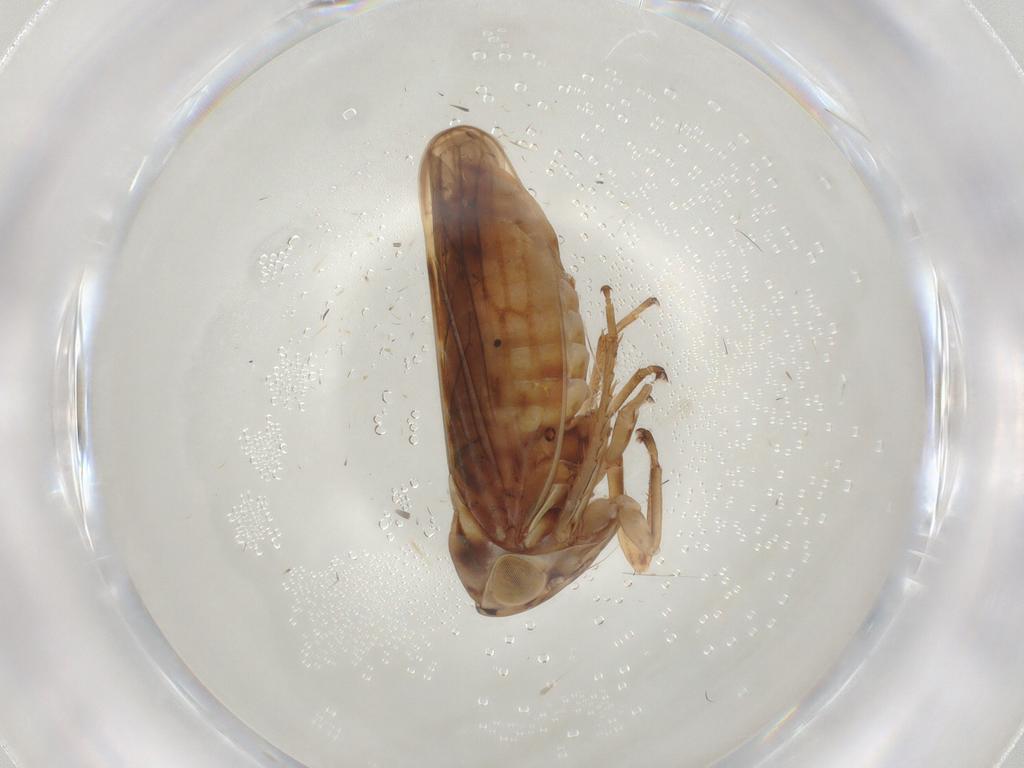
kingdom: Animalia
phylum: Arthropoda
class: Insecta
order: Hemiptera
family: Cicadellidae
